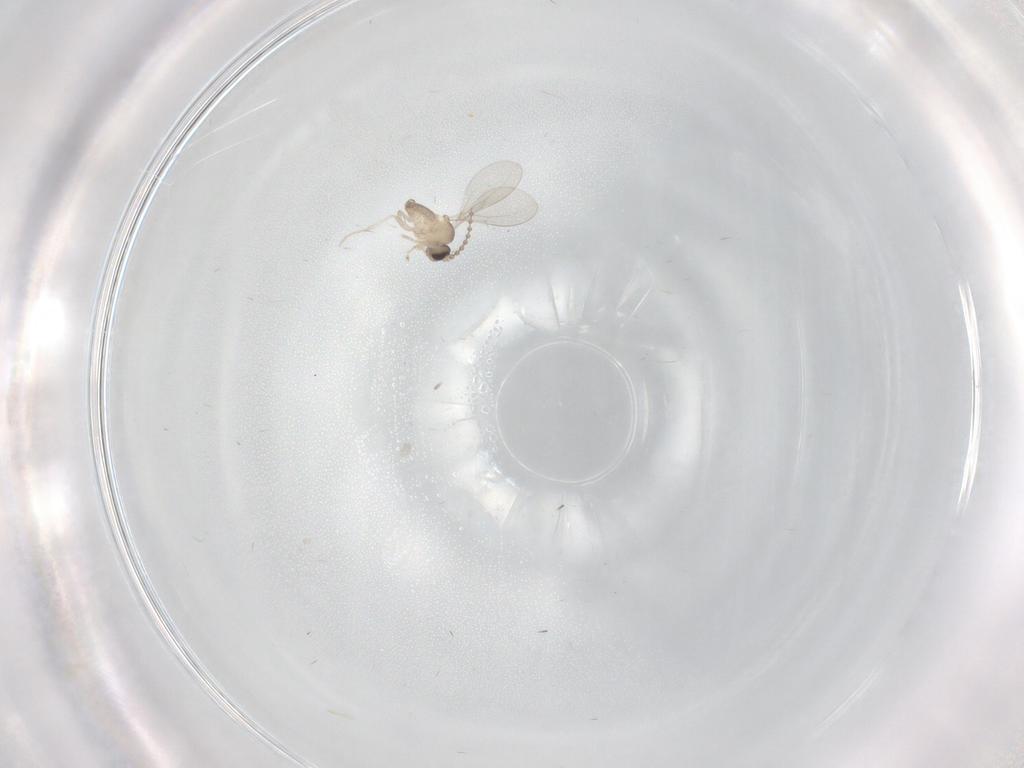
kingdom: Animalia
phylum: Arthropoda
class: Insecta
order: Diptera
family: Cecidomyiidae
